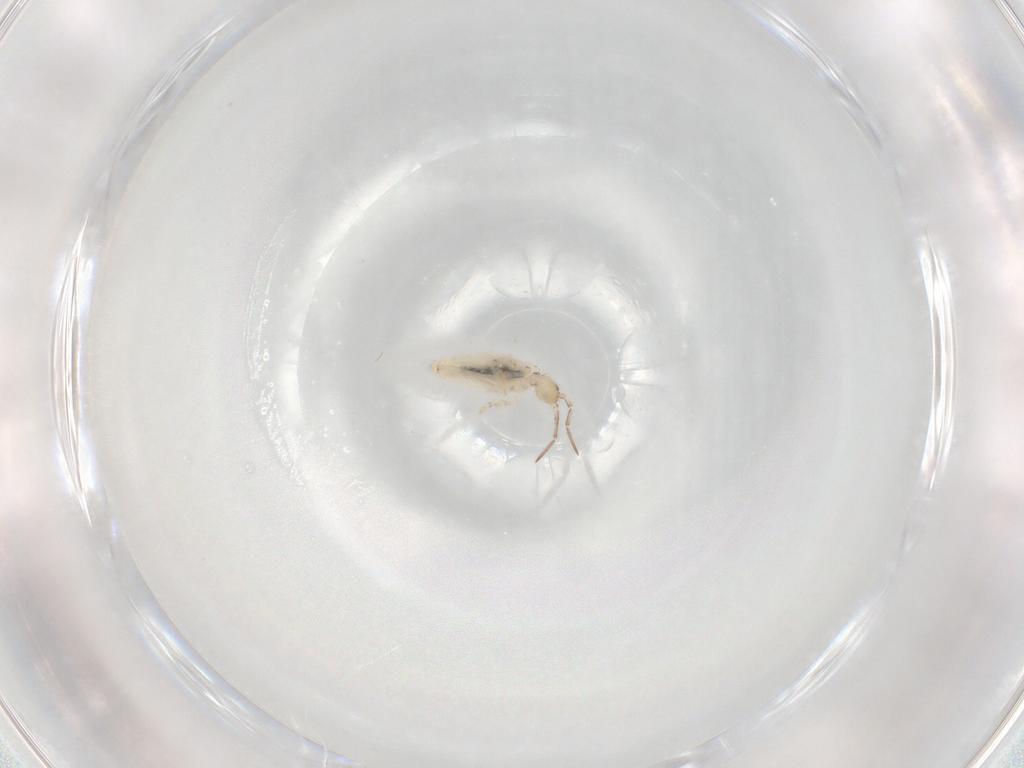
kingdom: Animalia
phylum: Arthropoda
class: Collembola
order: Entomobryomorpha
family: Entomobryidae
